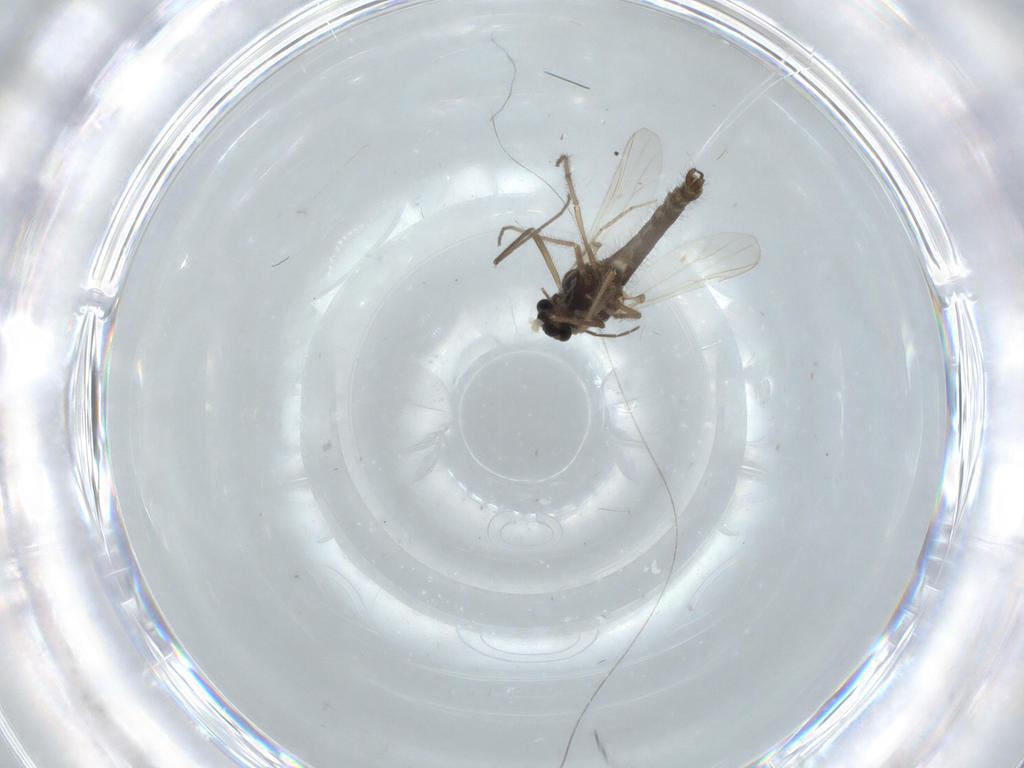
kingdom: Animalia
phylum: Arthropoda
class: Insecta
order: Diptera
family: Chironomidae
